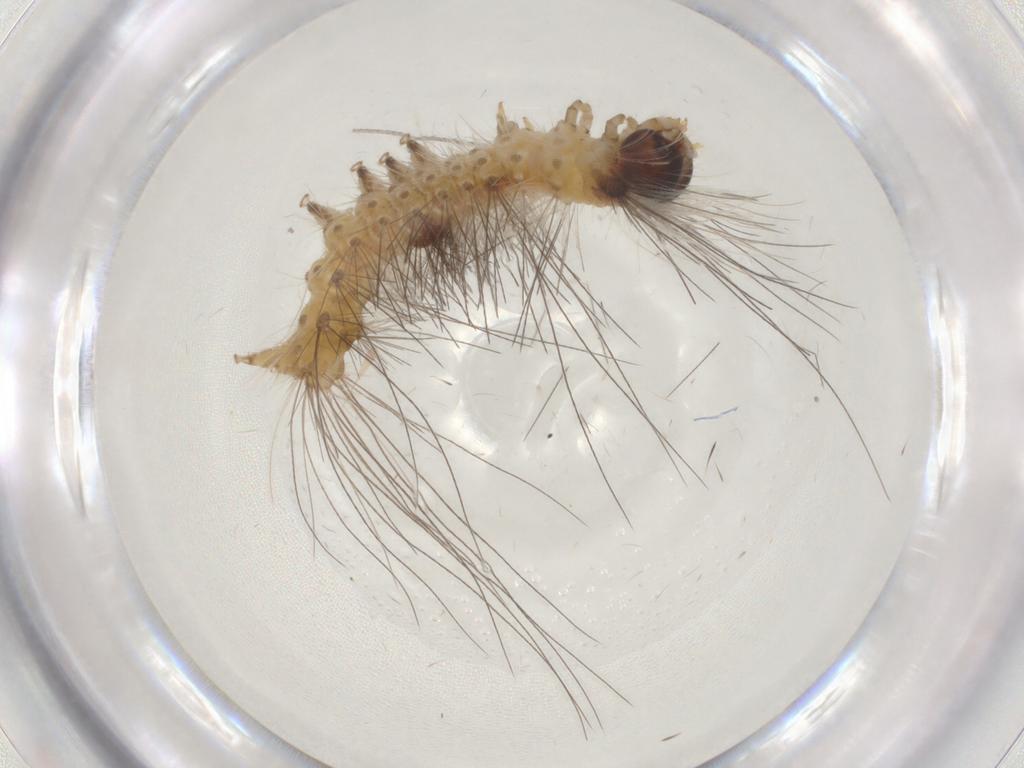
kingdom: Animalia
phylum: Arthropoda
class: Insecta
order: Lepidoptera
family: Erebidae
